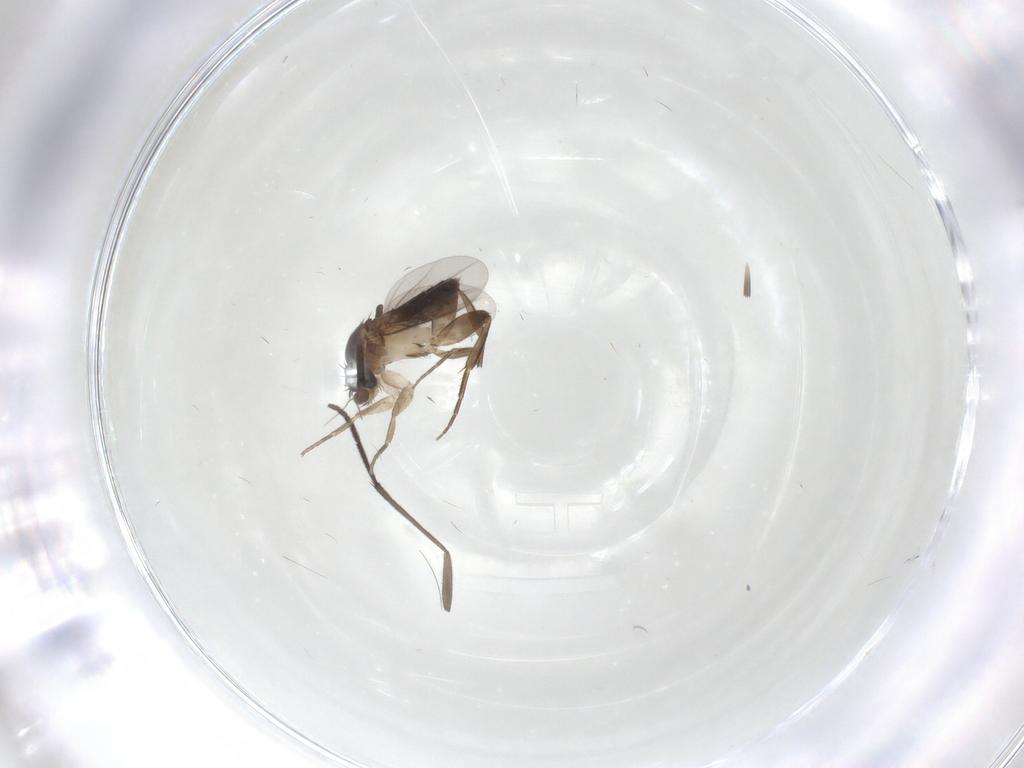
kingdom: Animalia
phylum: Arthropoda
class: Insecta
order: Diptera
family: Phoridae
